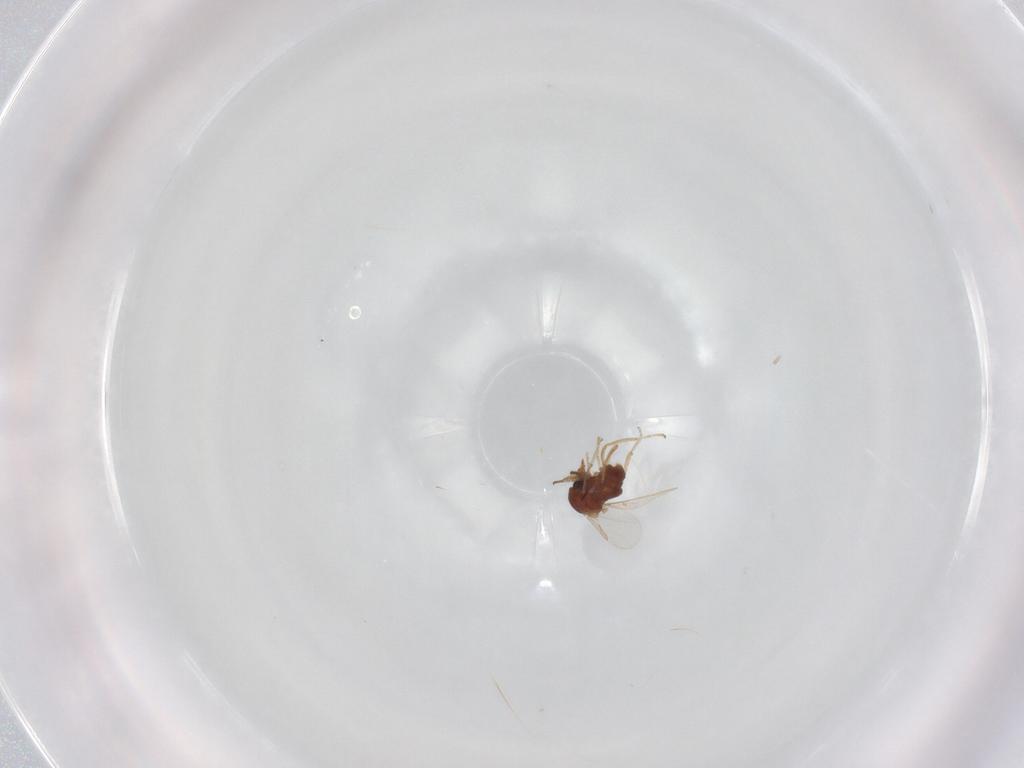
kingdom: Animalia
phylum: Arthropoda
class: Insecta
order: Diptera
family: Ceratopogonidae
